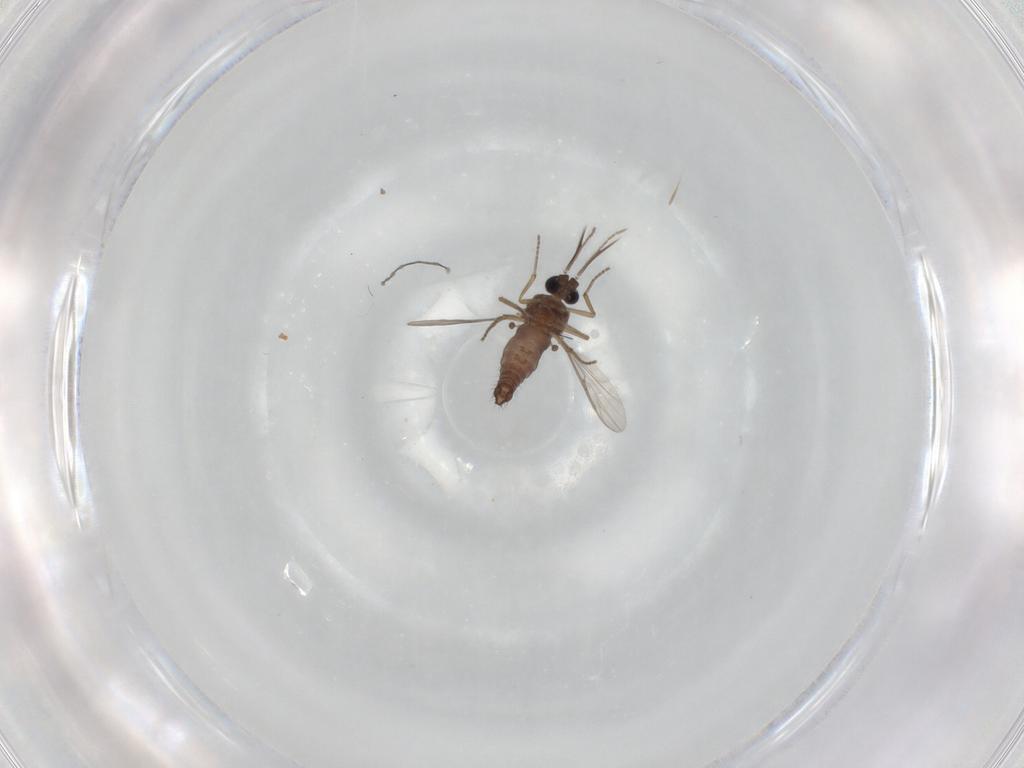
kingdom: Animalia
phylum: Arthropoda
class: Insecta
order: Diptera
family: Ceratopogonidae
